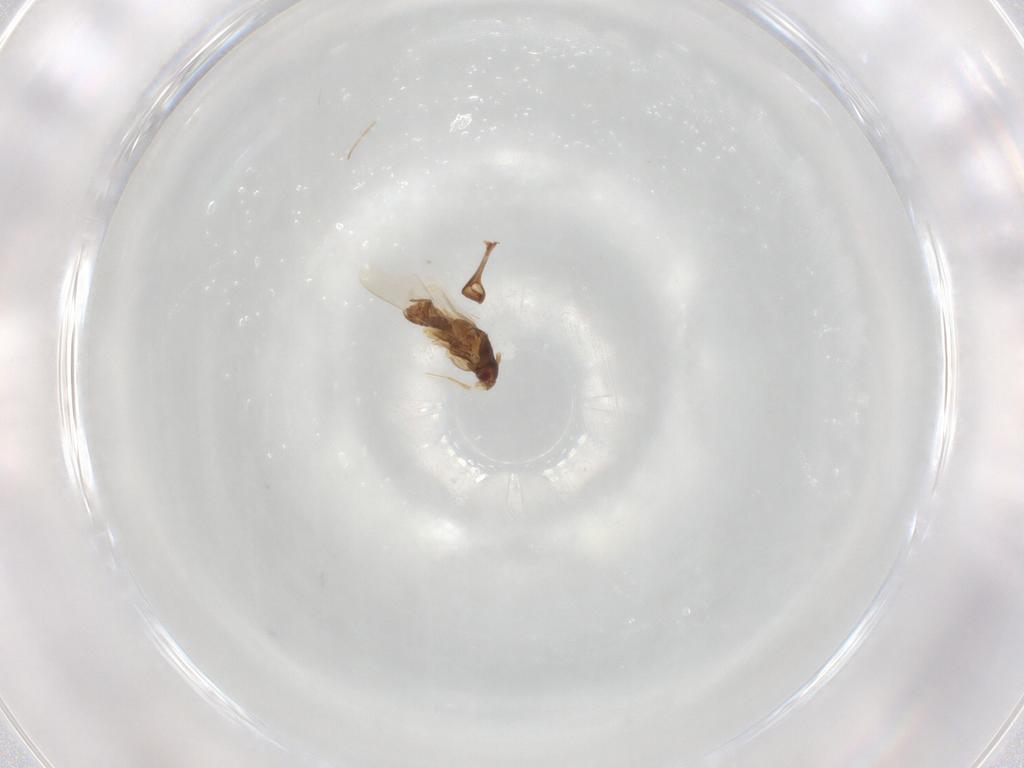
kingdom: Animalia
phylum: Arthropoda
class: Insecta
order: Hemiptera
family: Ceratocombidae
